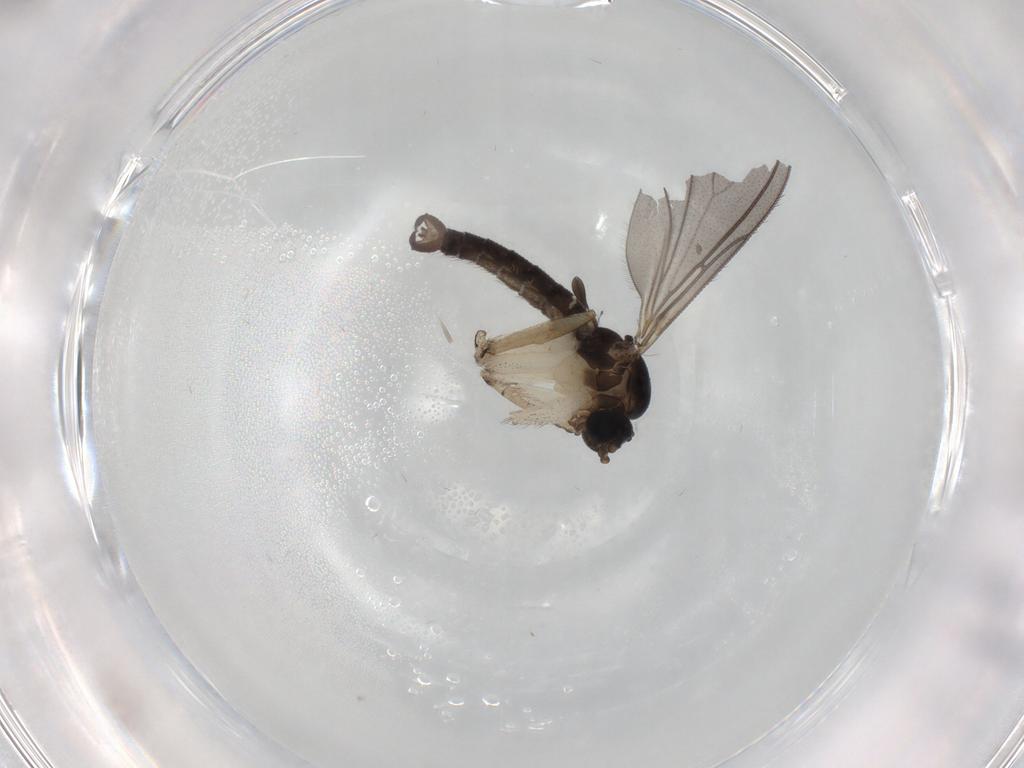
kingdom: Animalia
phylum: Arthropoda
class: Insecta
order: Diptera
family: Sciaridae
